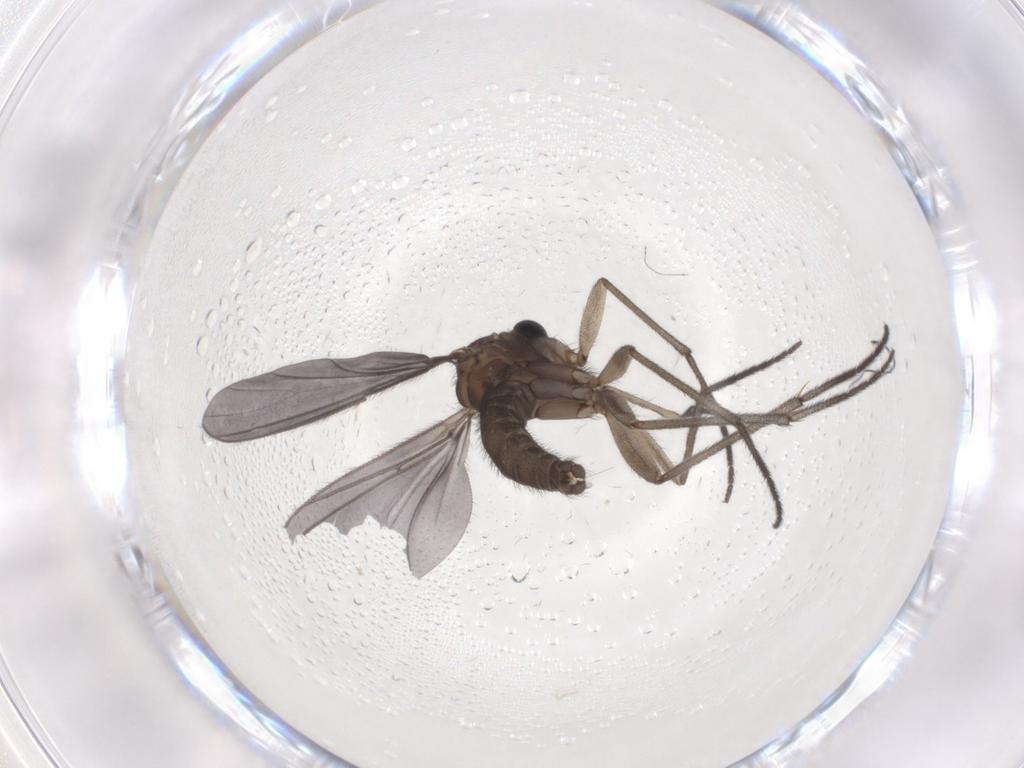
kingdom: Animalia
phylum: Arthropoda
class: Insecta
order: Diptera
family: Sciaridae
